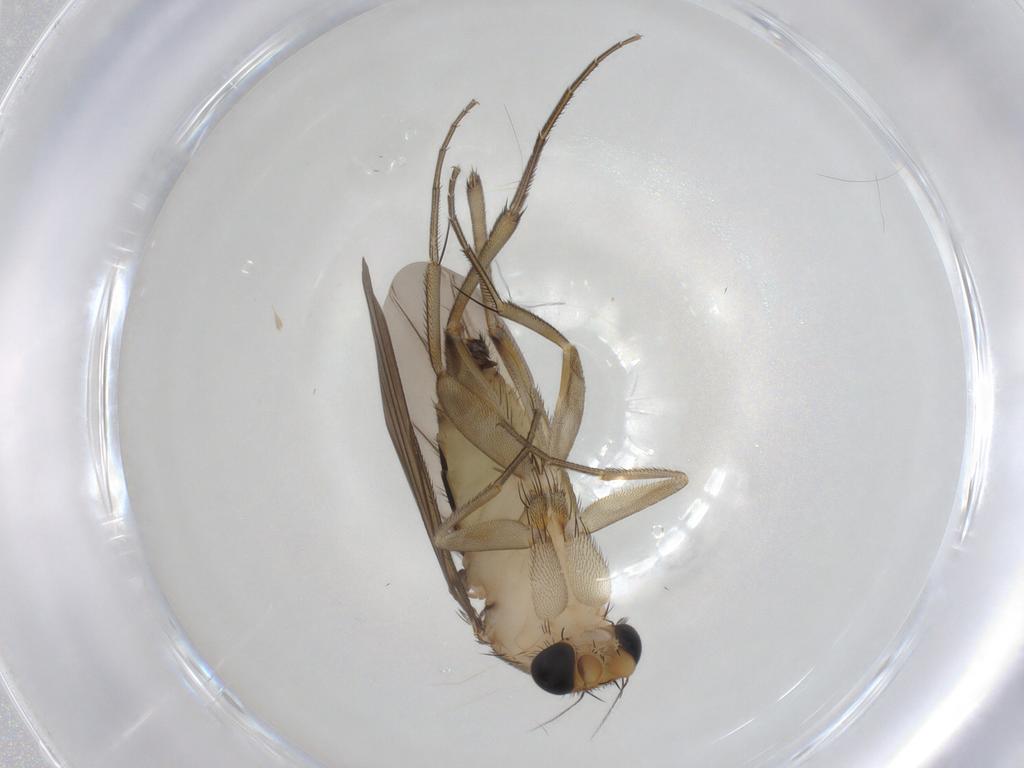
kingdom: Animalia
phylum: Arthropoda
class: Insecta
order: Diptera
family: Phoridae
